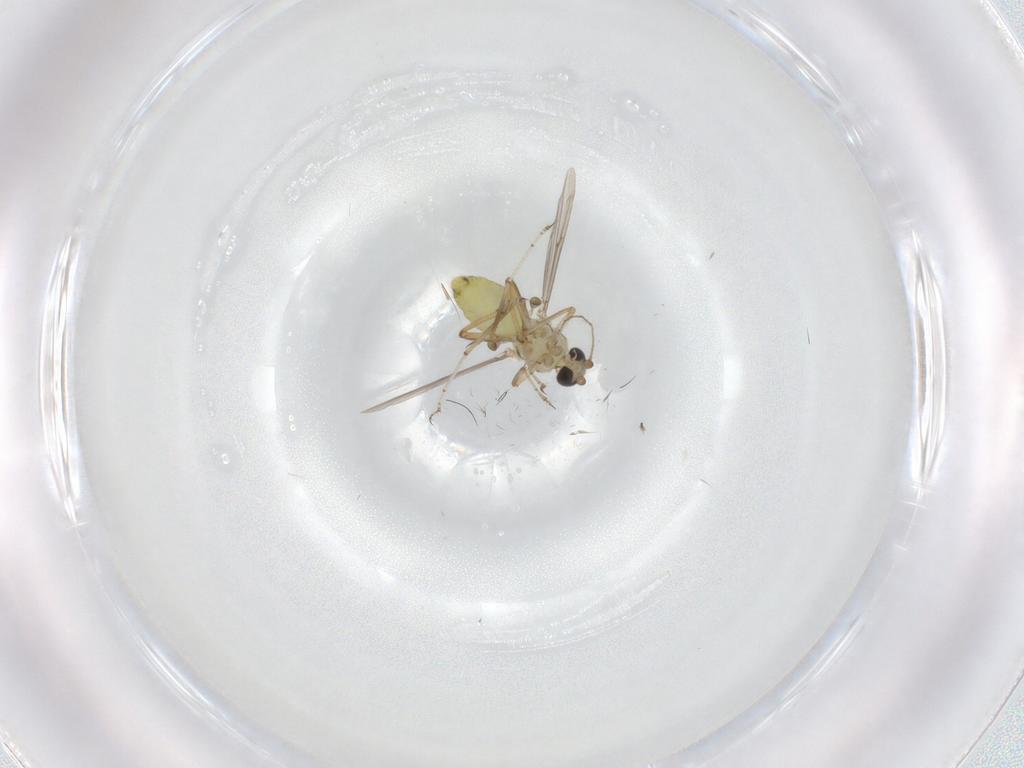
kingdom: Animalia
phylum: Arthropoda
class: Insecta
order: Diptera
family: Ceratopogonidae
